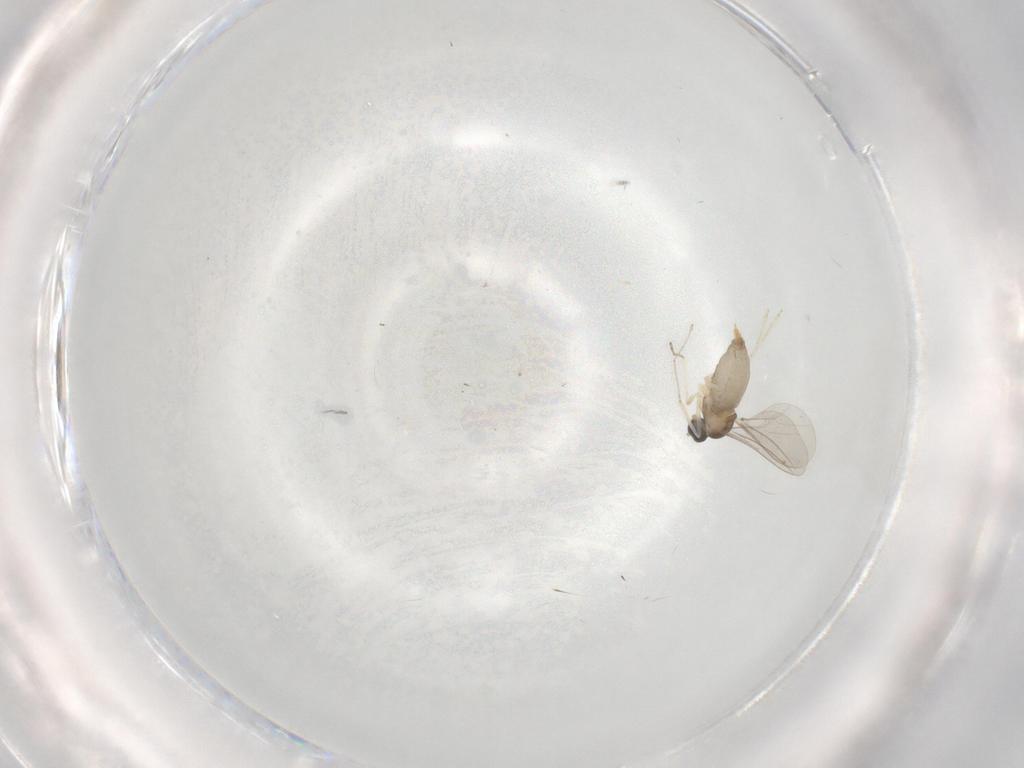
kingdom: Animalia
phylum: Arthropoda
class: Insecta
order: Diptera
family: Cecidomyiidae
